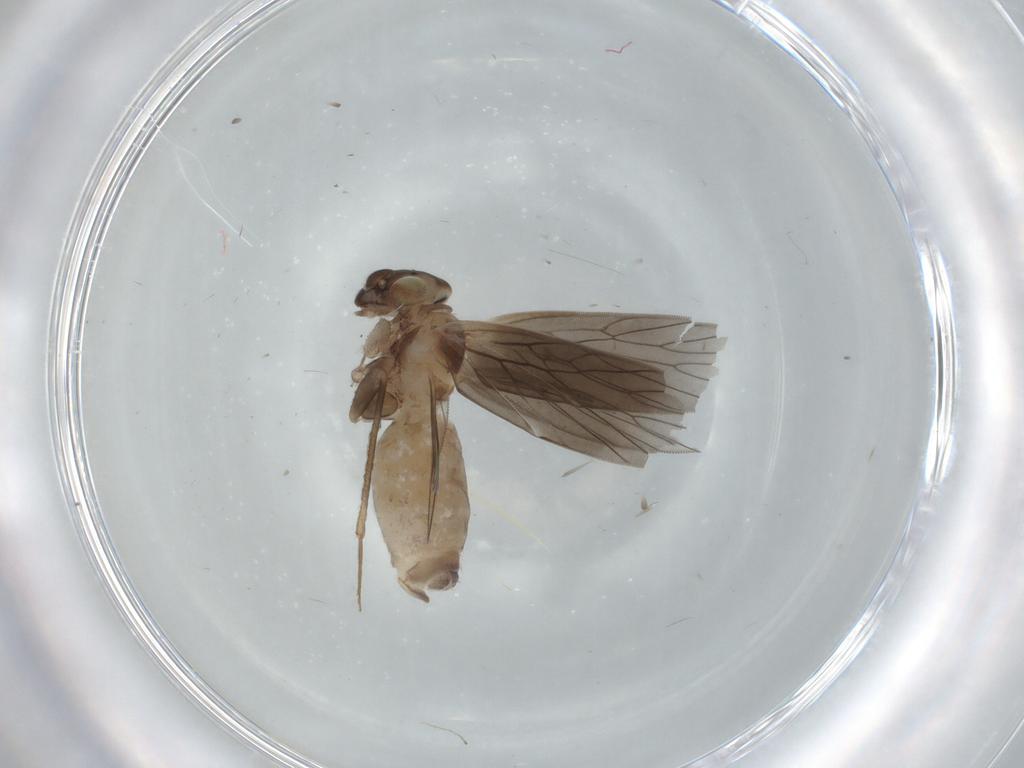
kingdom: Animalia
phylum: Arthropoda
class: Insecta
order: Psocodea
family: Lepidopsocidae
